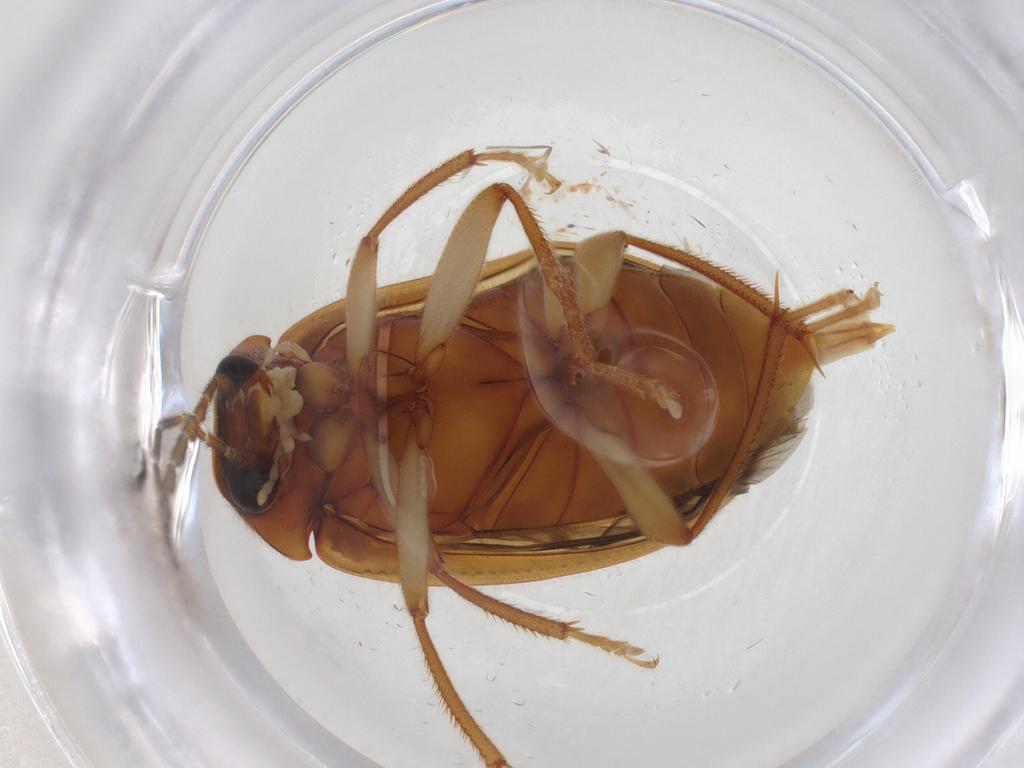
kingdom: Animalia
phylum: Arthropoda
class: Insecta
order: Coleoptera
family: Ptilodactylidae
